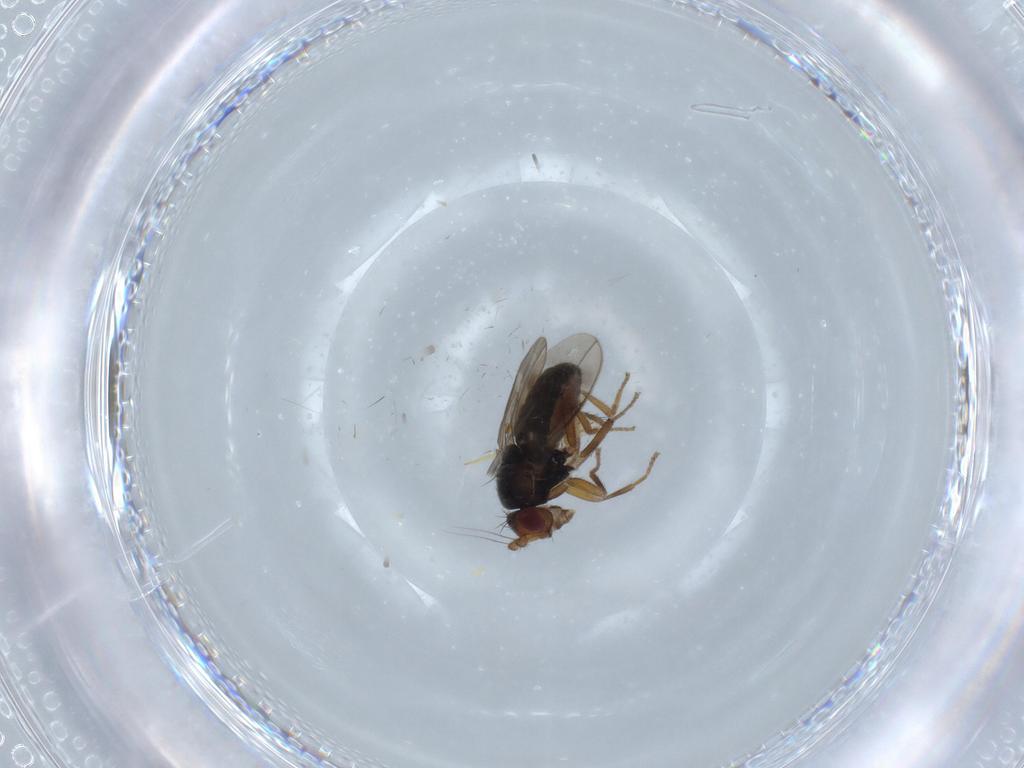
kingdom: Animalia
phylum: Arthropoda
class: Insecta
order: Diptera
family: Sphaeroceridae
